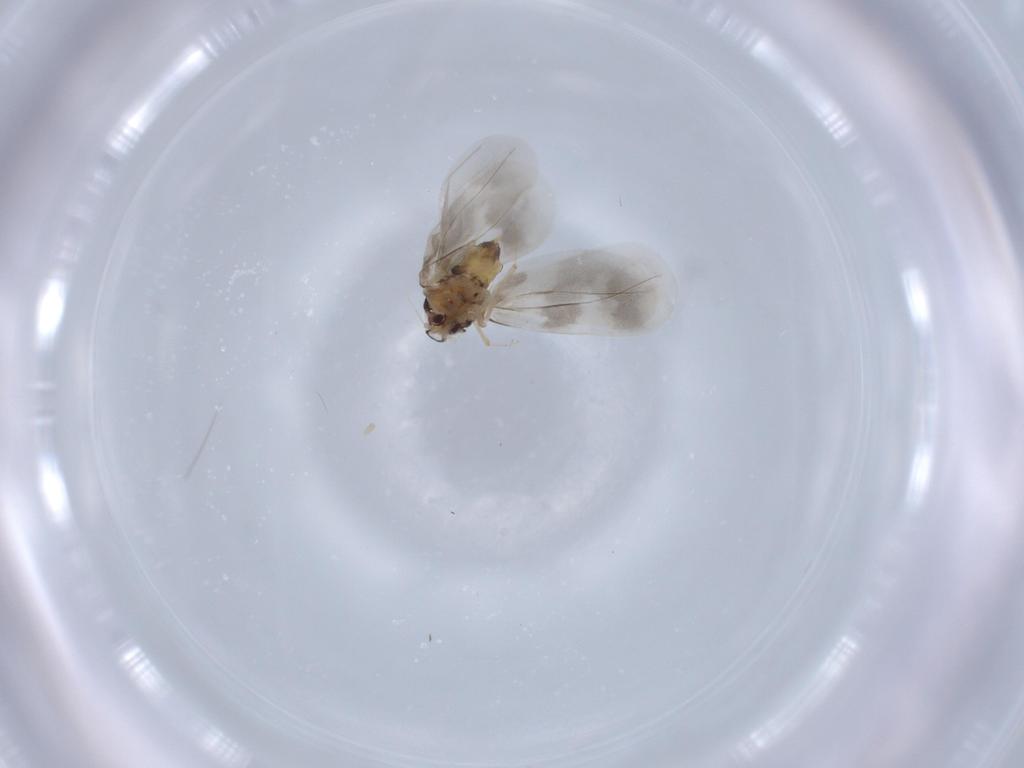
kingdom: Animalia
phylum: Arthropoda
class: Insecta
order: Hemiptera
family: Aleyrodidae
